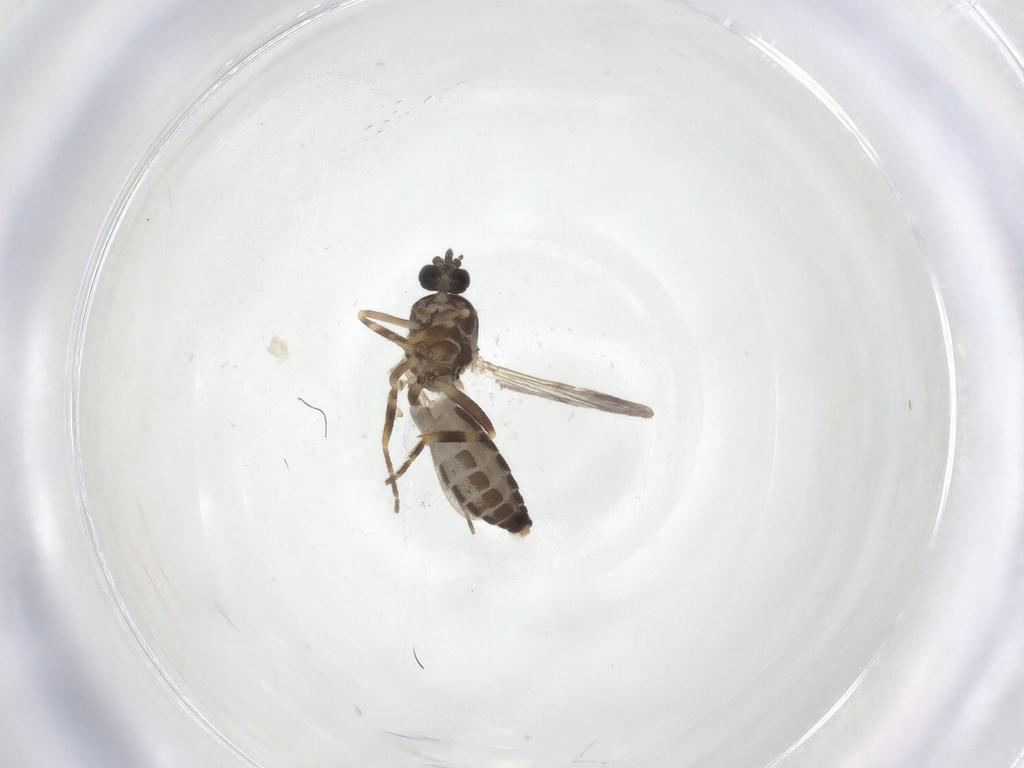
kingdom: Animalia
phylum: Arthropoda
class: Insecta
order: Diptera
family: Ceratopogonidae
